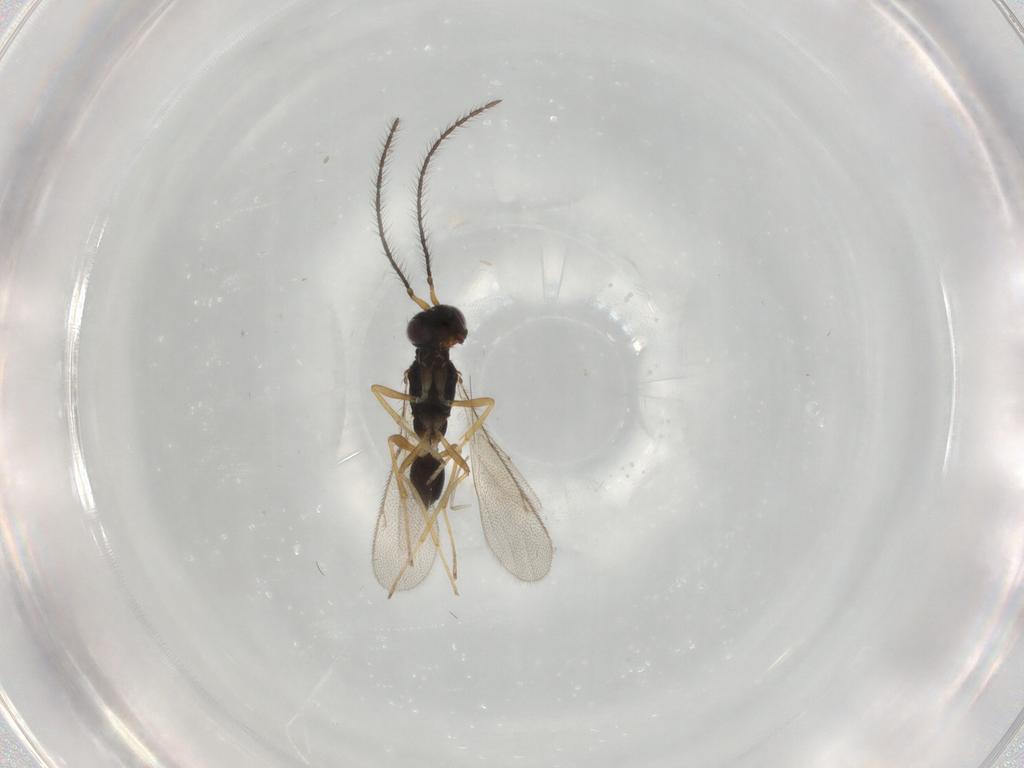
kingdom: Animalia
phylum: Arthropoda
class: Insecta
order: Hymenoptera
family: Diparidae
